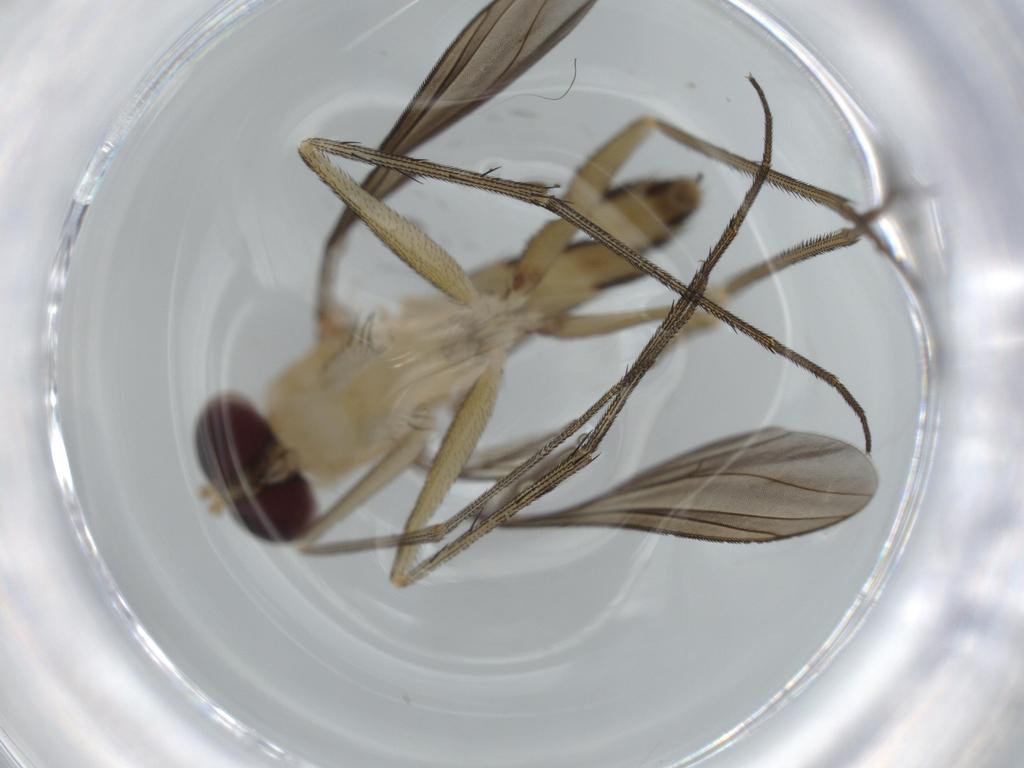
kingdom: Animalia
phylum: Arthropoda
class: Insecta
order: Diptera
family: Dolichopodidae
